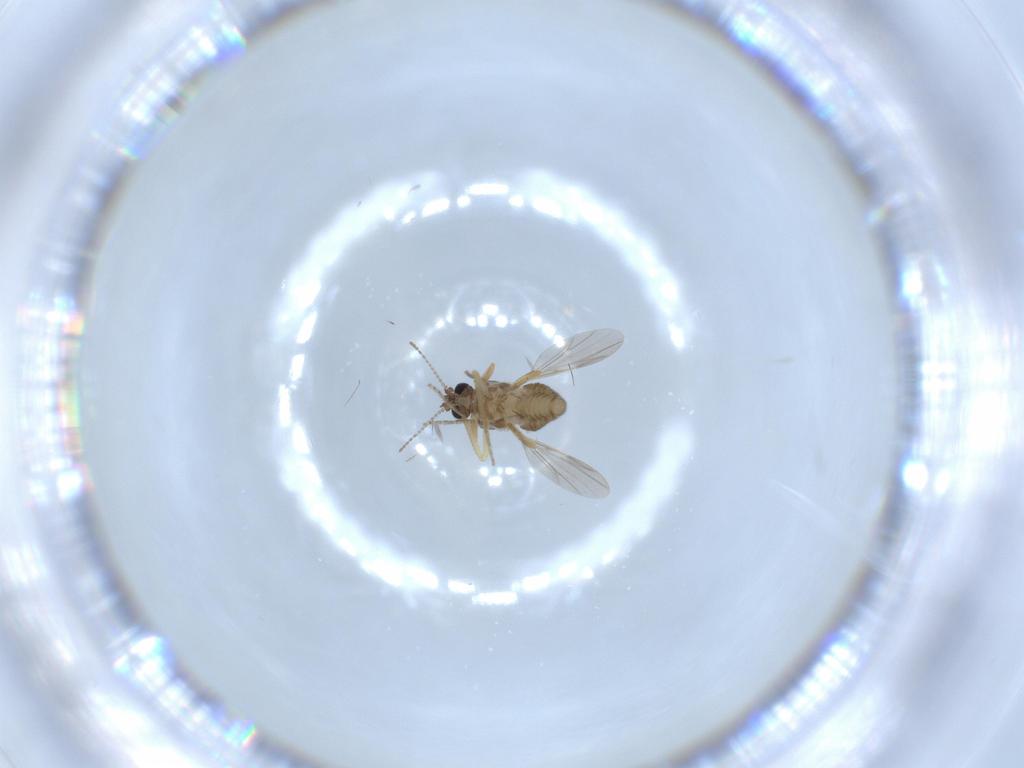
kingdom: Animalia
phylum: Arthropoda
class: Insecta
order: Diptera
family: Ceratopogonidae
